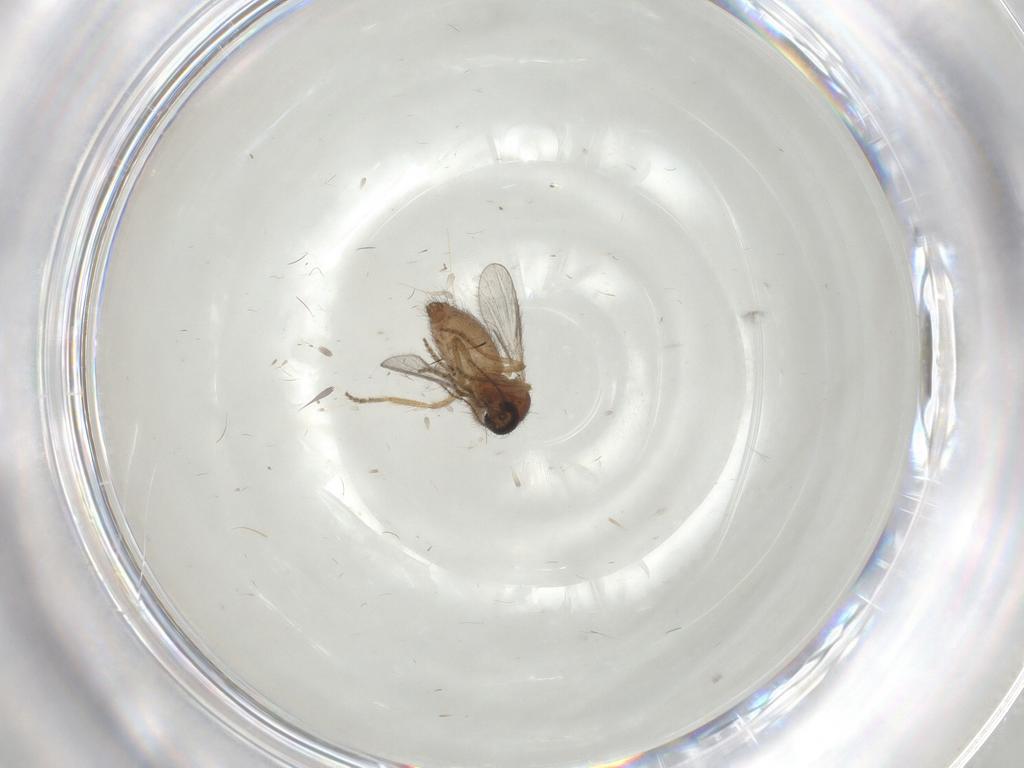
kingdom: Animalia
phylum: Arthropoda
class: Insecta
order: Diptera
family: Ceratopogonidae
